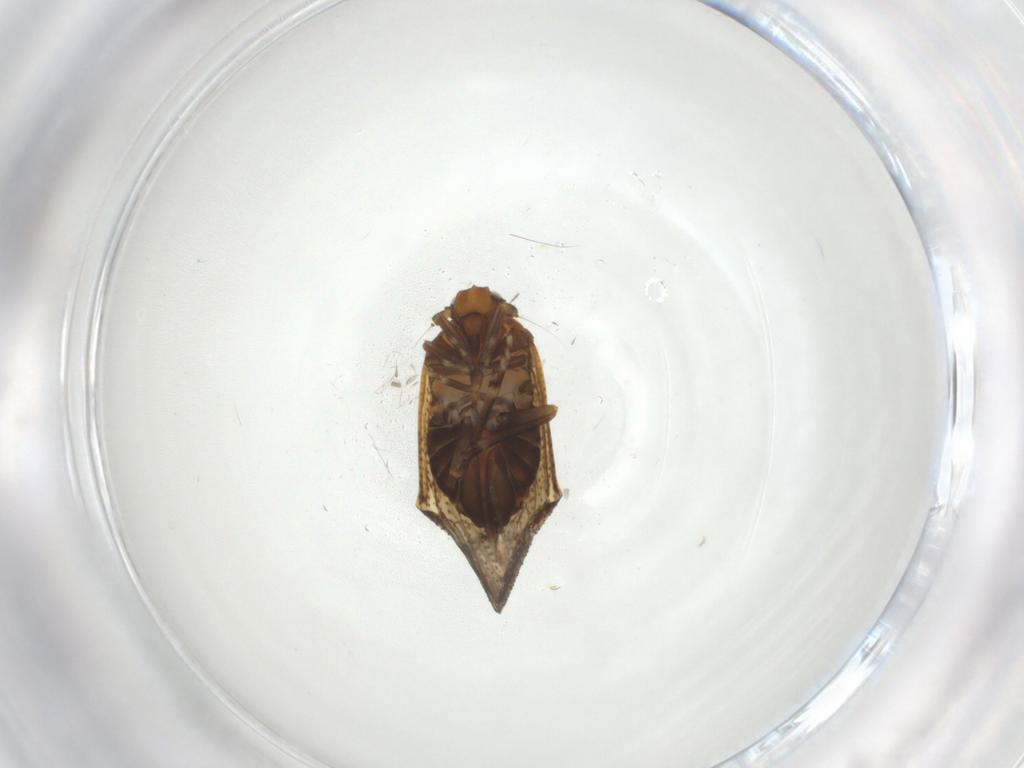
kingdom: Animalia
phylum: Arthropoda
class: Insecta
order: Hemiptera
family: Delphacidae
